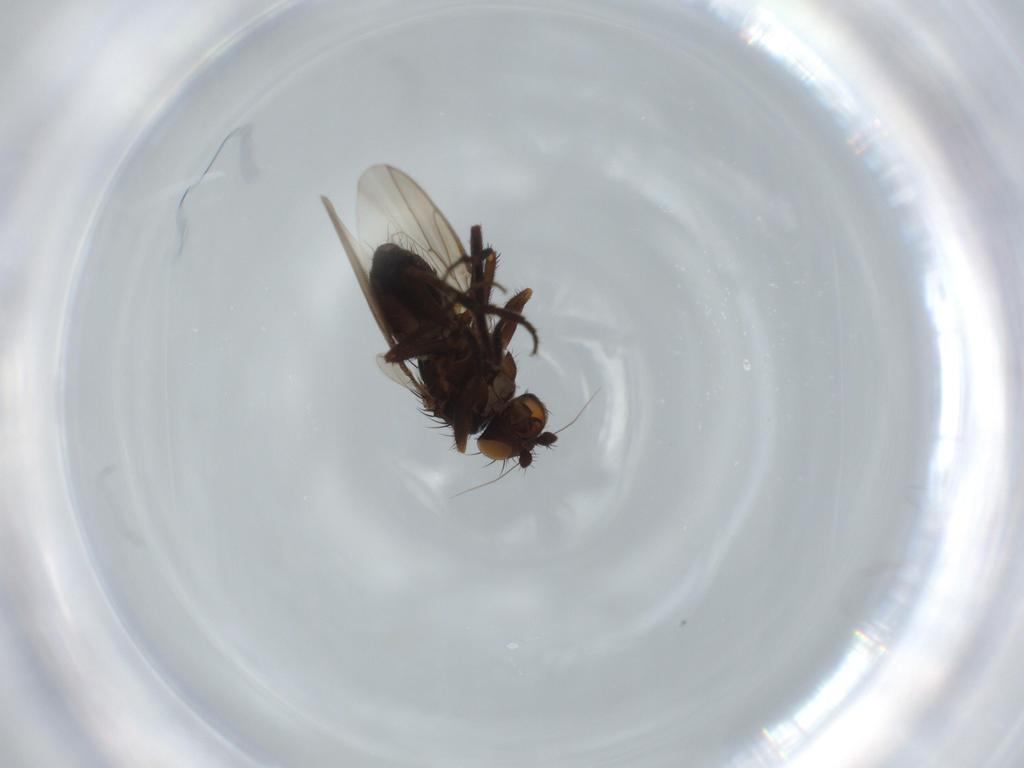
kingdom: Animalia
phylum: Arthropoda
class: Insecta
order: Diptera
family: Sphaeroceridae
